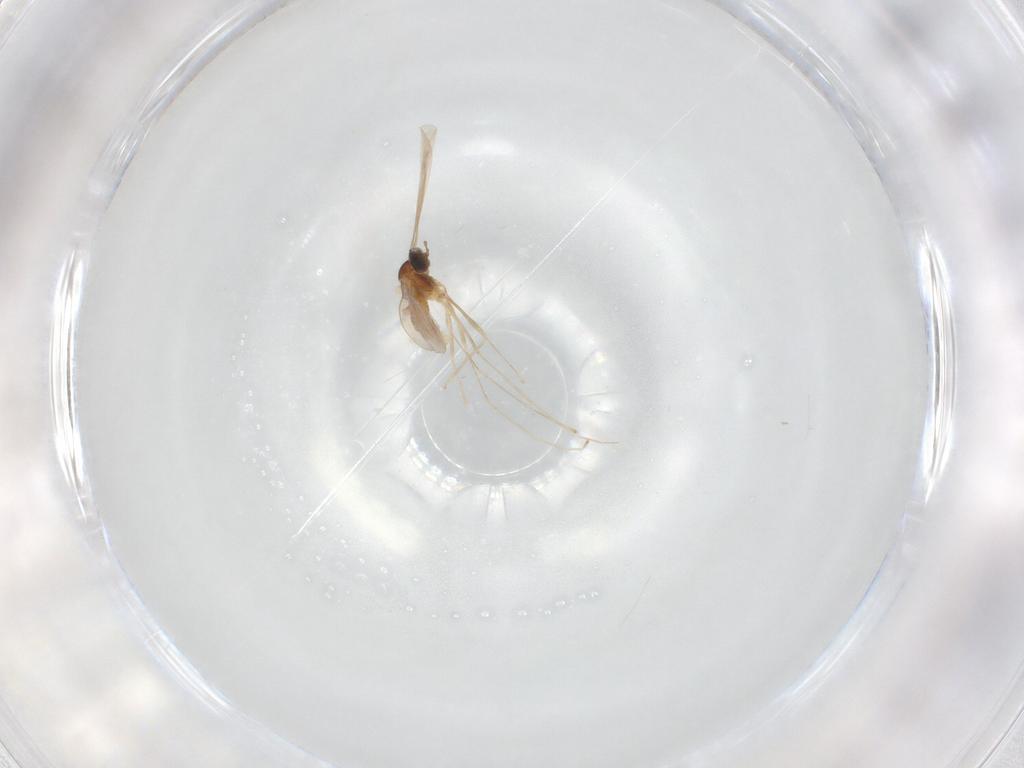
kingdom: Animalia
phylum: Arthropoda
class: Insecta
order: Diptera
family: Cecidomyiidae
